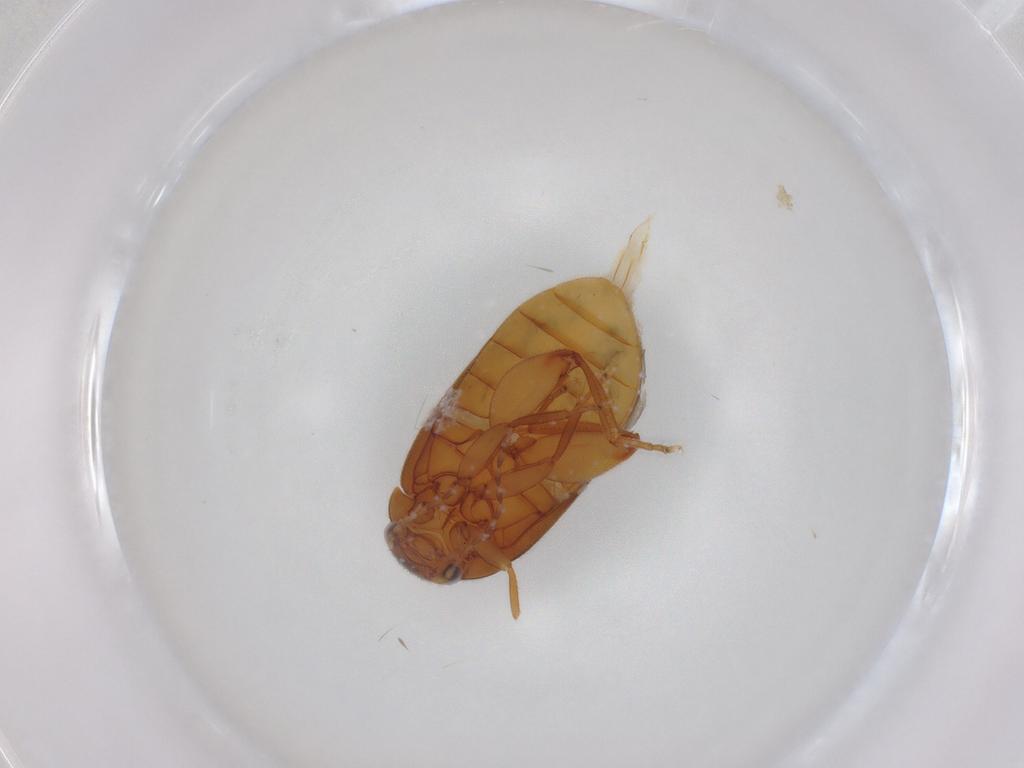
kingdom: Animalia
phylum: Arthropoda
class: Insecta
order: Coleoptera
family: Scirtidae
